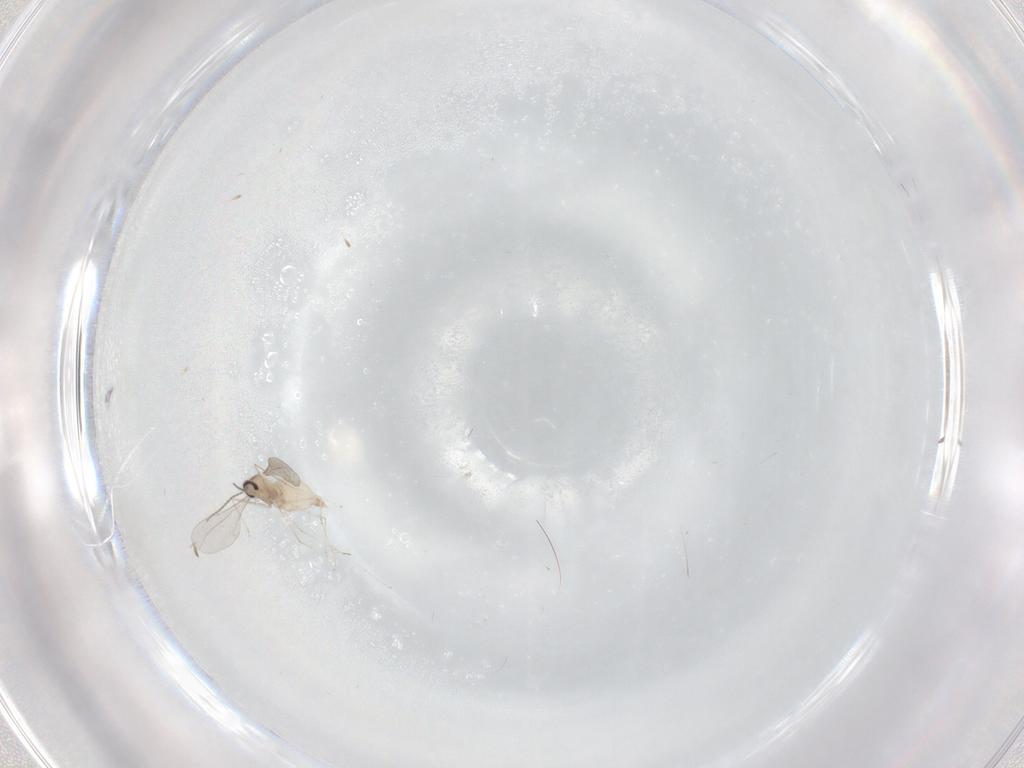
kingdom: Animalia
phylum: Arthropoda
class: Insecta
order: Diptera
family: Cecidomyiidae
